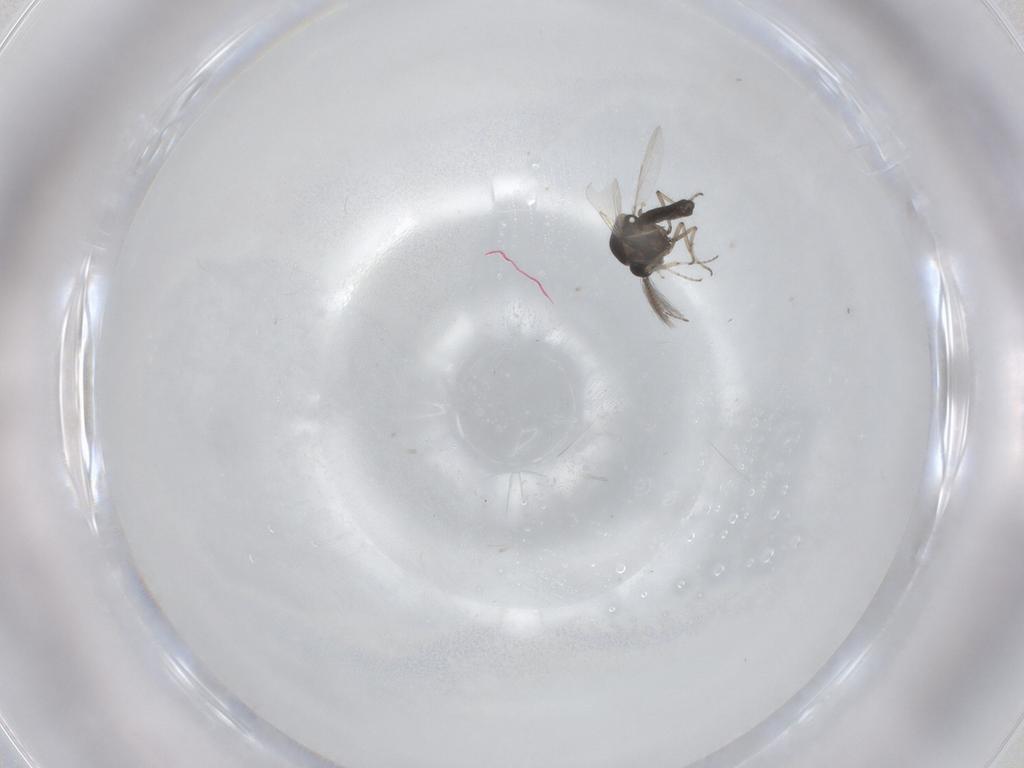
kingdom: Animalia
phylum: Arthropoda
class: Insecta
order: Diptera
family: Ceratopogonidae
